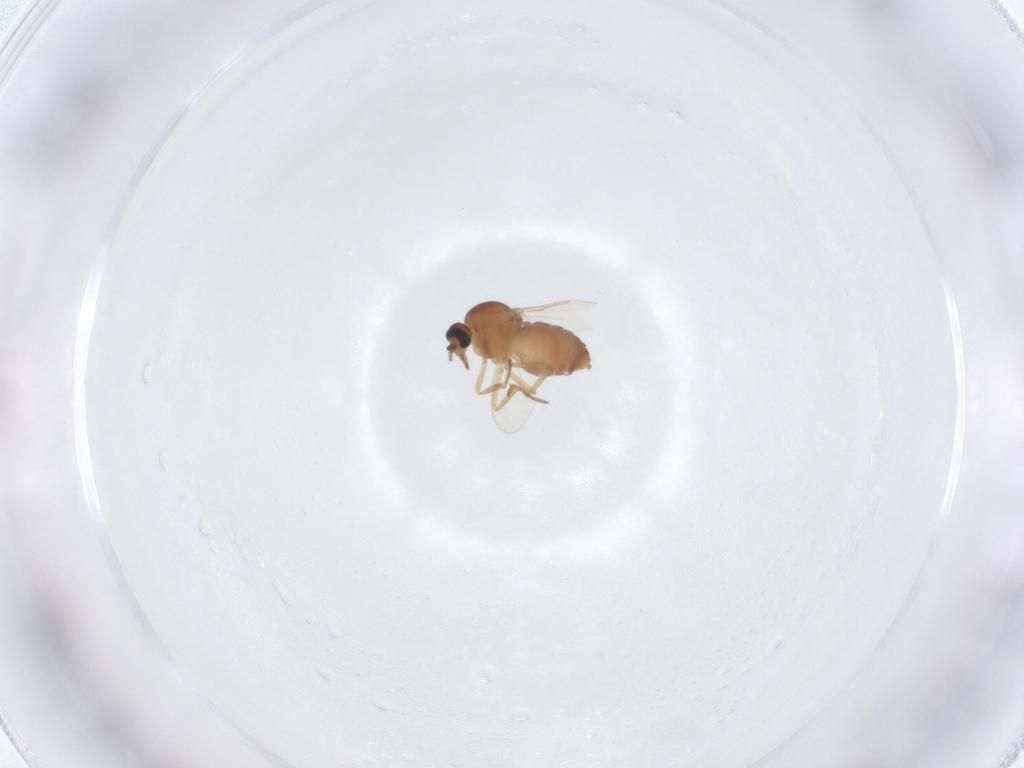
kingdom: Animalia
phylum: Arthropoda
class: Insecta
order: Diptera
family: Ceratopogonidae
